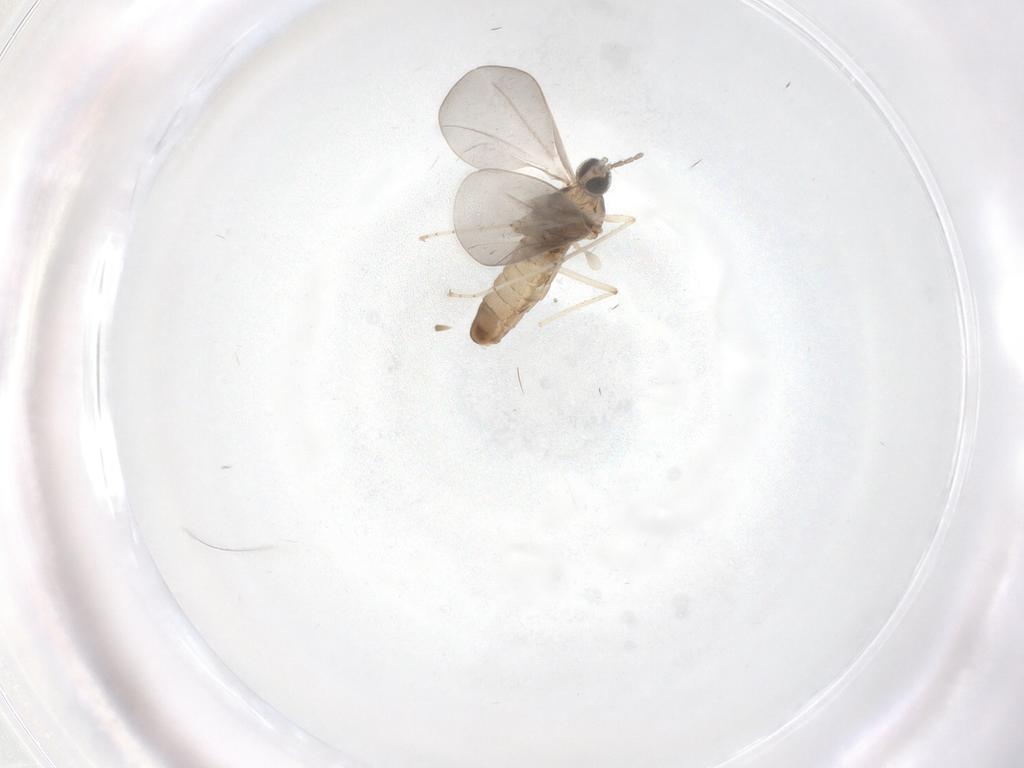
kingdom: Animalia
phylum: Arthropoda
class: Insecta
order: Diptera
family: Cecidomyiidae
